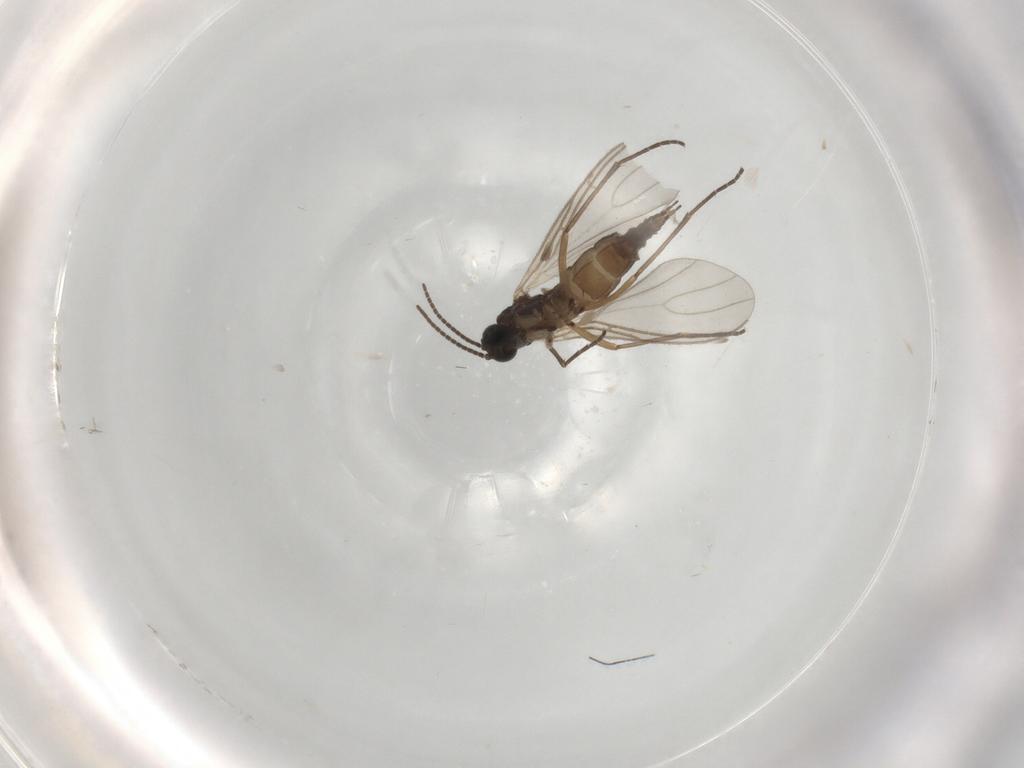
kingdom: Animalia
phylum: Arthropoda
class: Insecta
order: Diptera
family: Sciaridae
